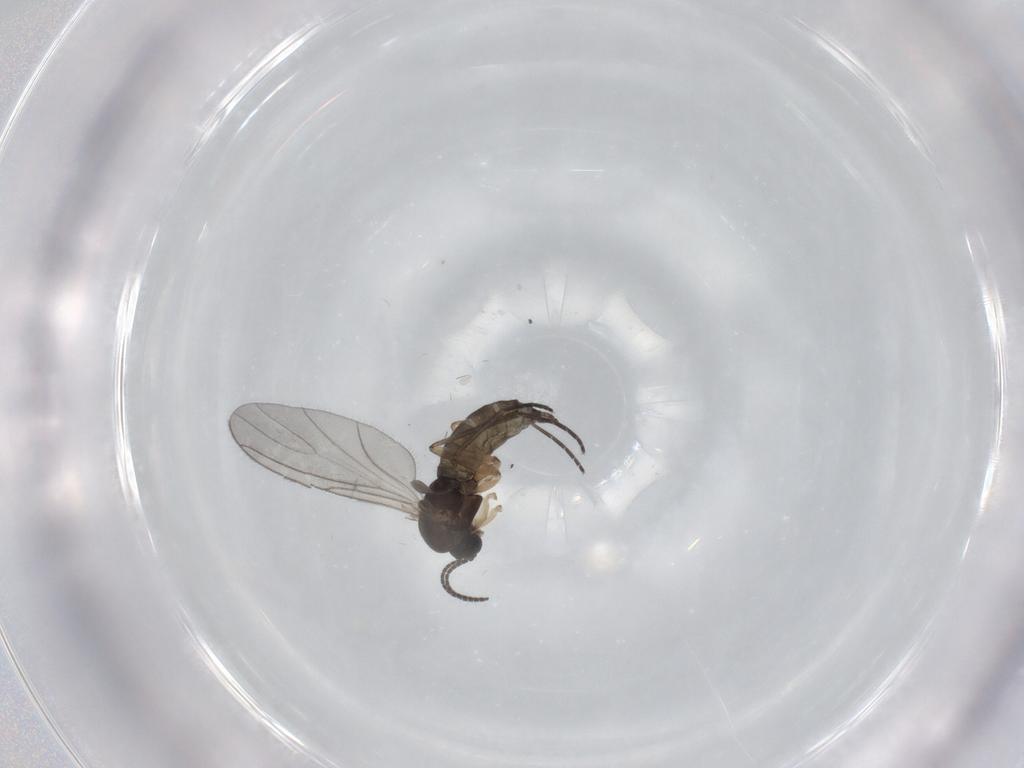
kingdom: Animalia
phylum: Arthropoda
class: Insecta
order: Diptera
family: Sciaridae
